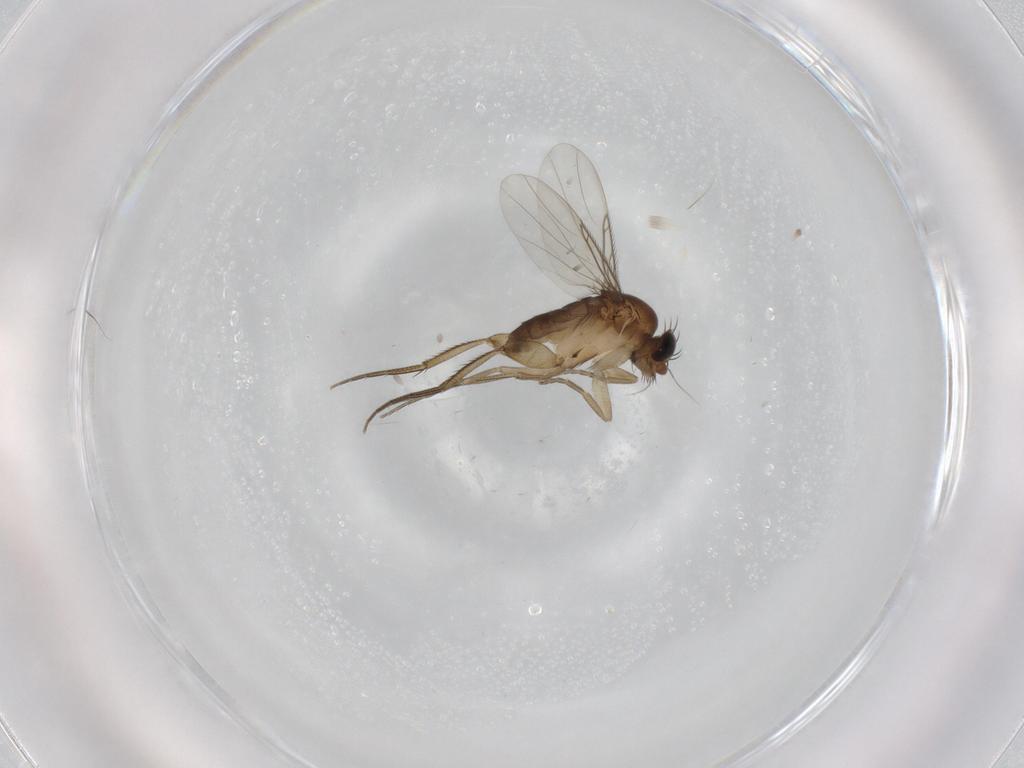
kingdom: Animalia
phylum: Arthropoda
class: Insecta
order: Diptera
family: Phoridae
